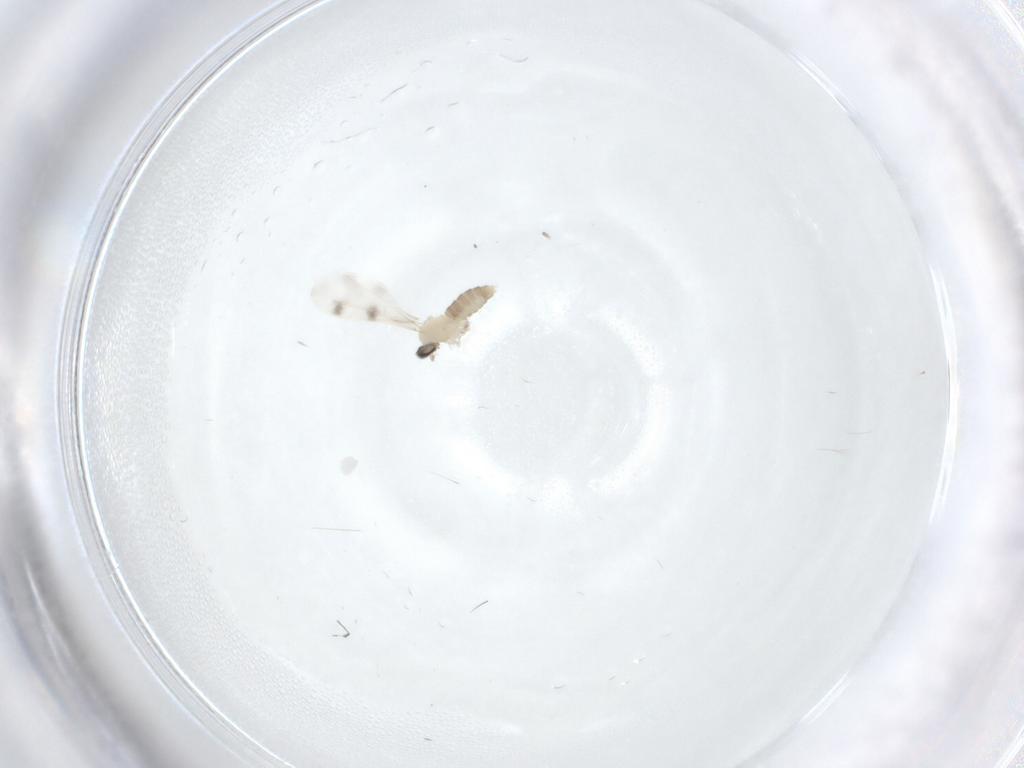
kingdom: Animalia
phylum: Arthropoda
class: Insecta
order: Diptera
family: Cecidomyiidae
